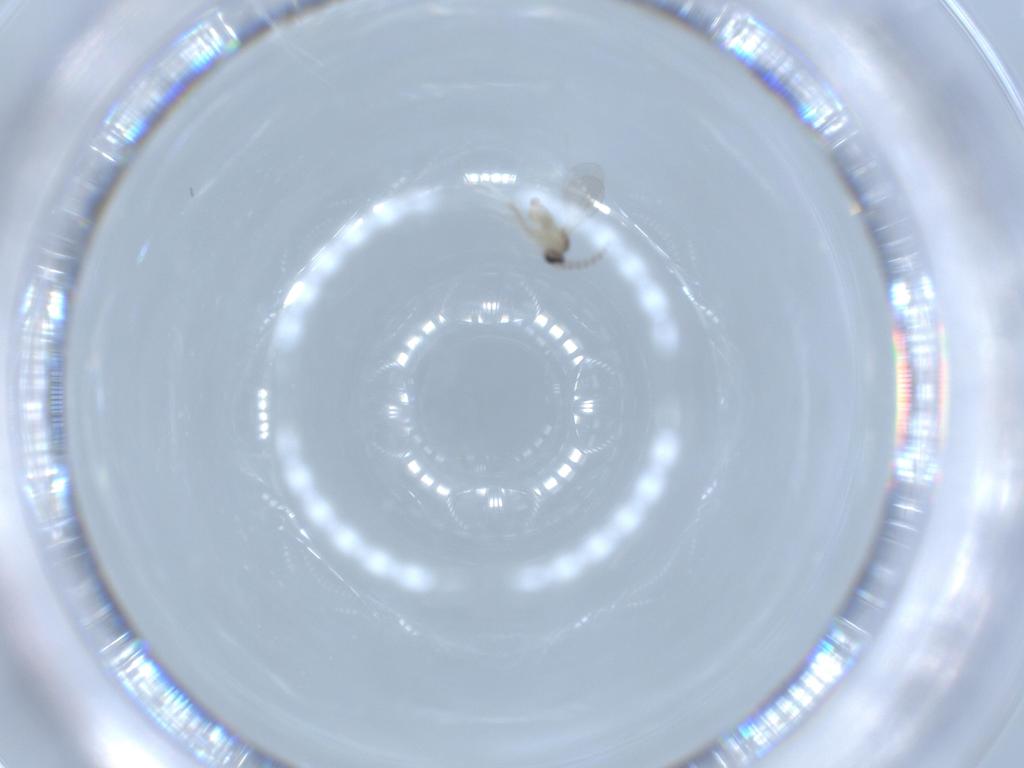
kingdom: Animalia
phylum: Arthropoda
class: Insecta
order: Diptera
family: Cecidomyiidae
